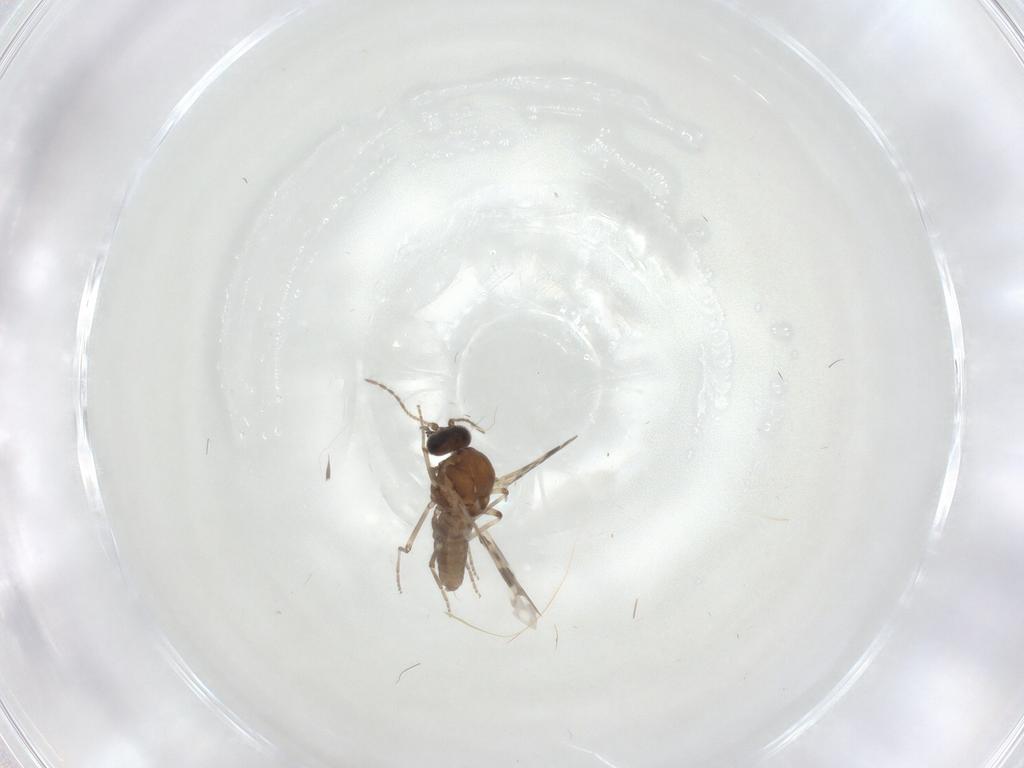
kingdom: Animalia
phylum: Arthropoda
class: Insecta
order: Diptera
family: Cecidomyiidae
